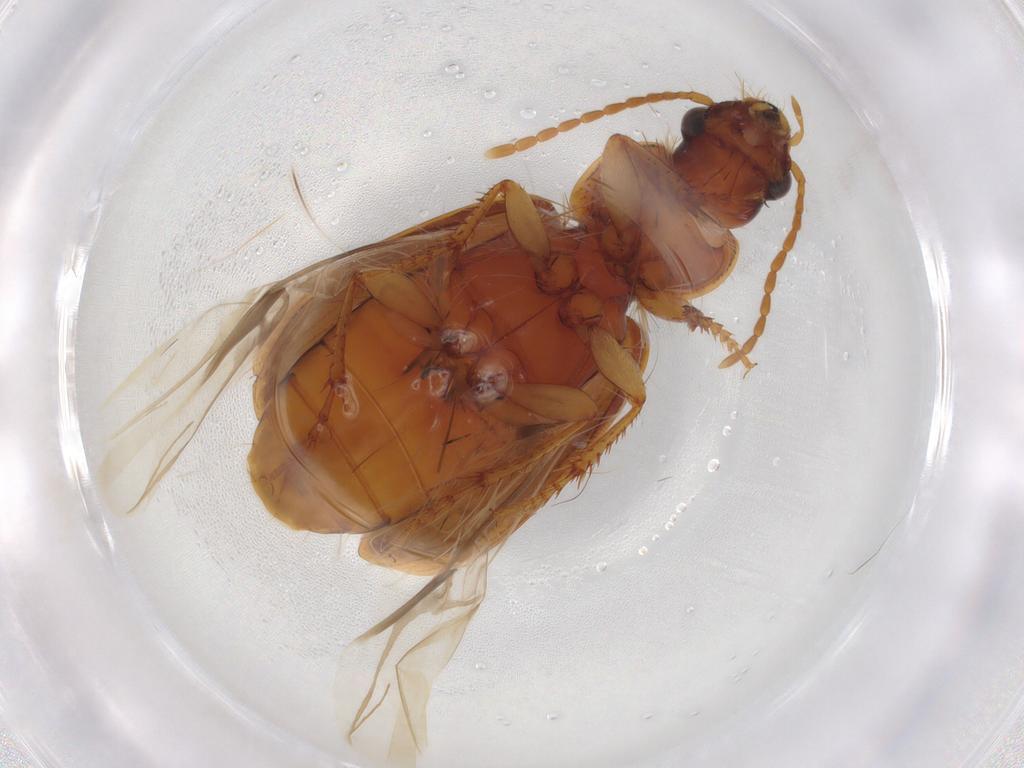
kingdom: Animalia
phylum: Arthropoda
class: Insecta
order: Coleoptera
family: Carabidae
